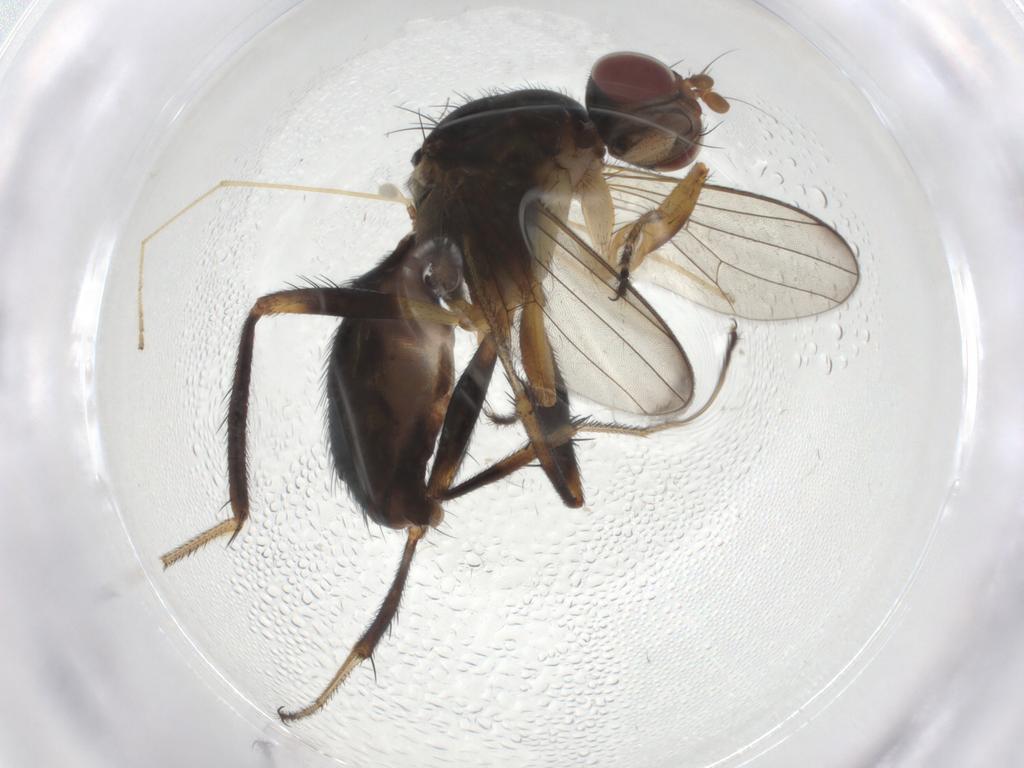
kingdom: Animalia
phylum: Arthropoda
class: Insecta
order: Diptera
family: Sepsidae
